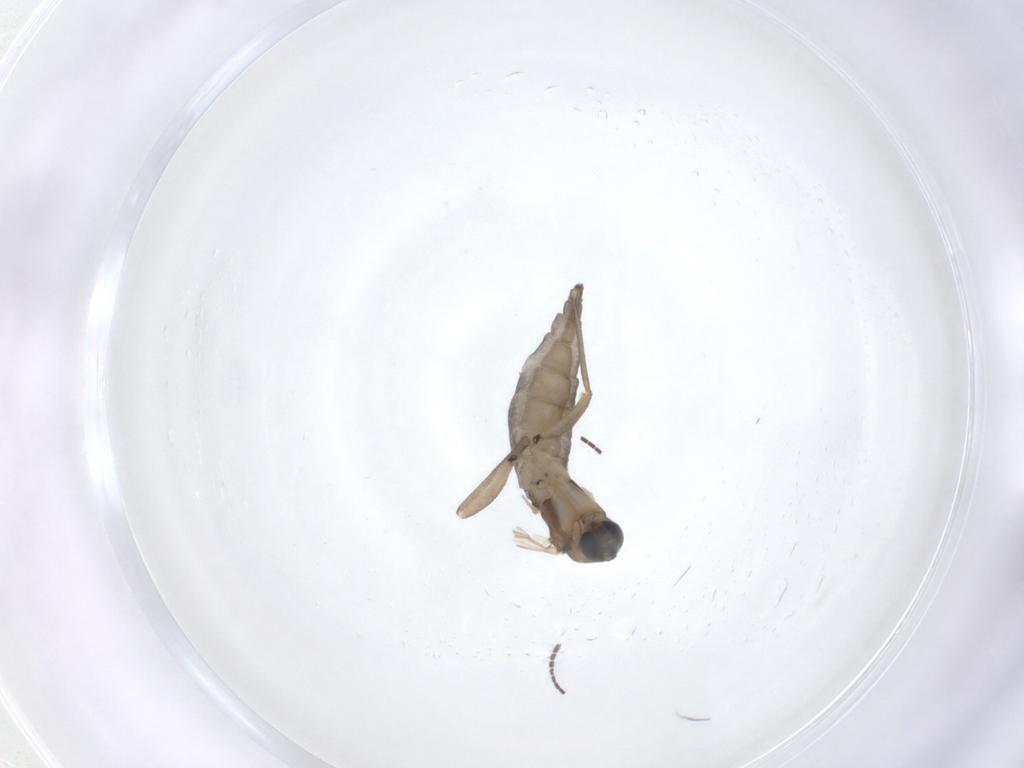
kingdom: Animalia
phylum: Arthropoda
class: Insecta
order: Diptera
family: Sciaridae
